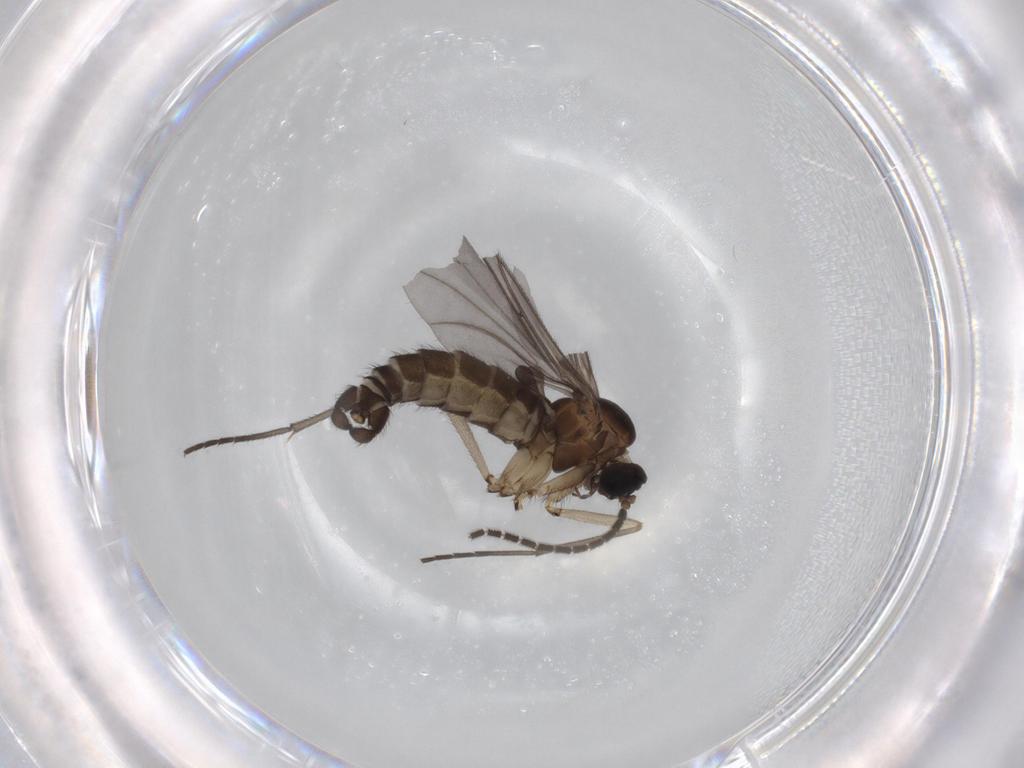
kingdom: Animalia
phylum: Arthropoda
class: Insecta
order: Diptera
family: Sciaridae
